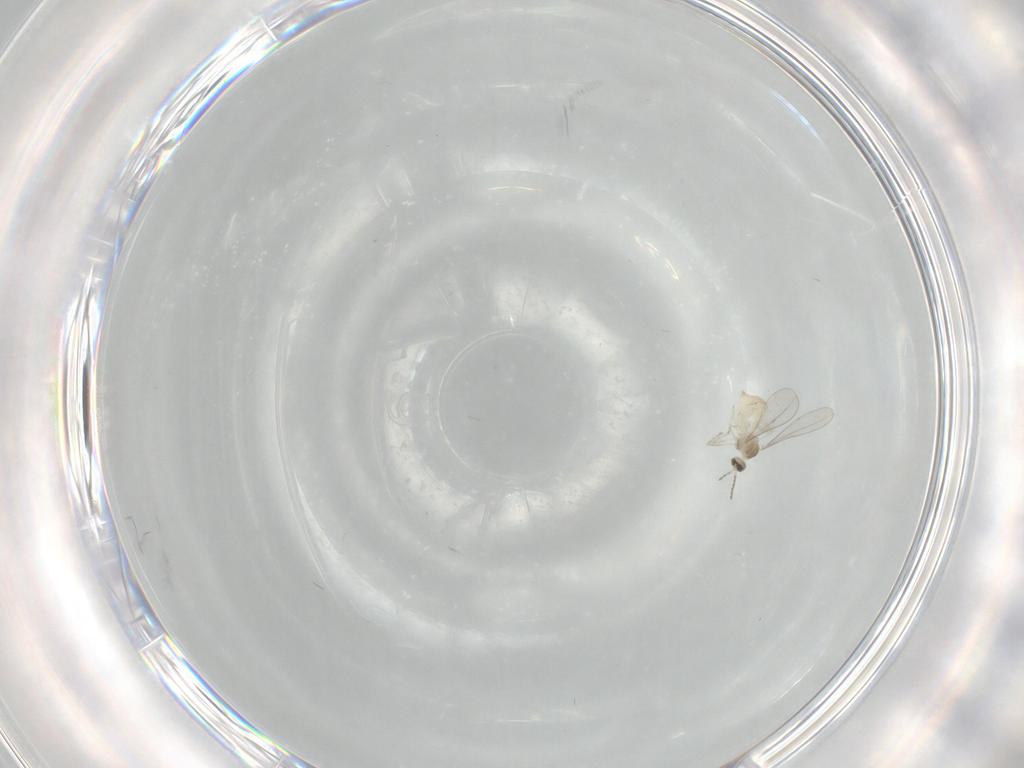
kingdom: Animalia
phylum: Arthropoda
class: Insecta
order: Diptera
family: Cecidomyiidae
